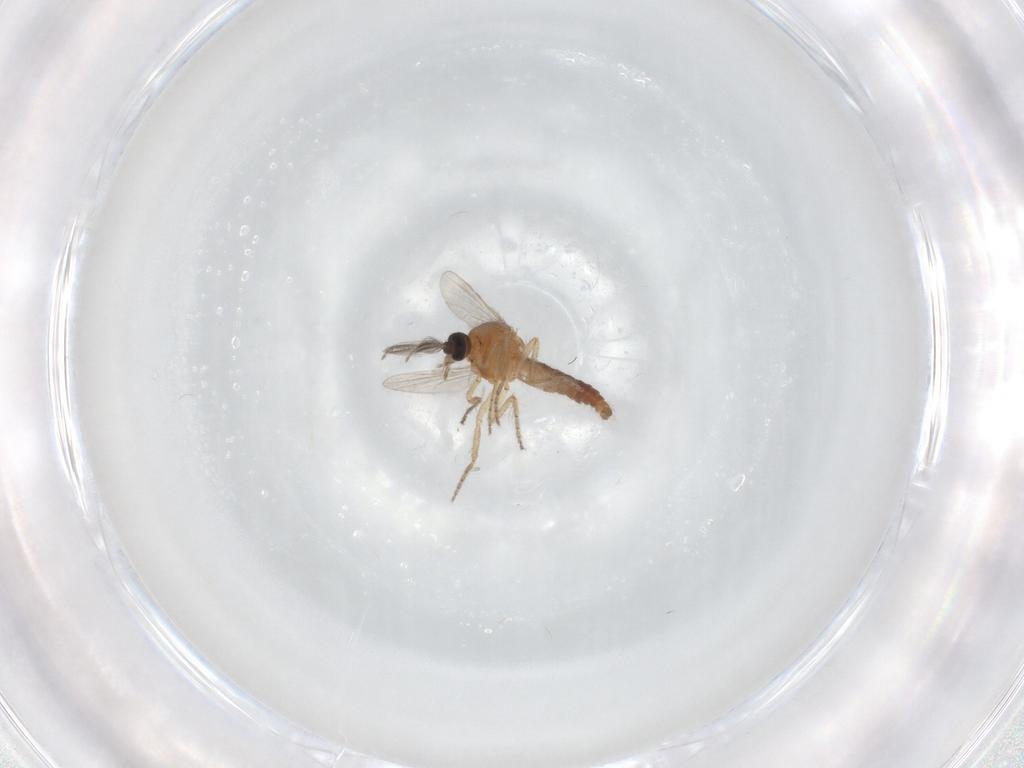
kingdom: Animalia
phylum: Arthropoda
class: Insecta
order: Diptera
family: Ceratopogonidae
